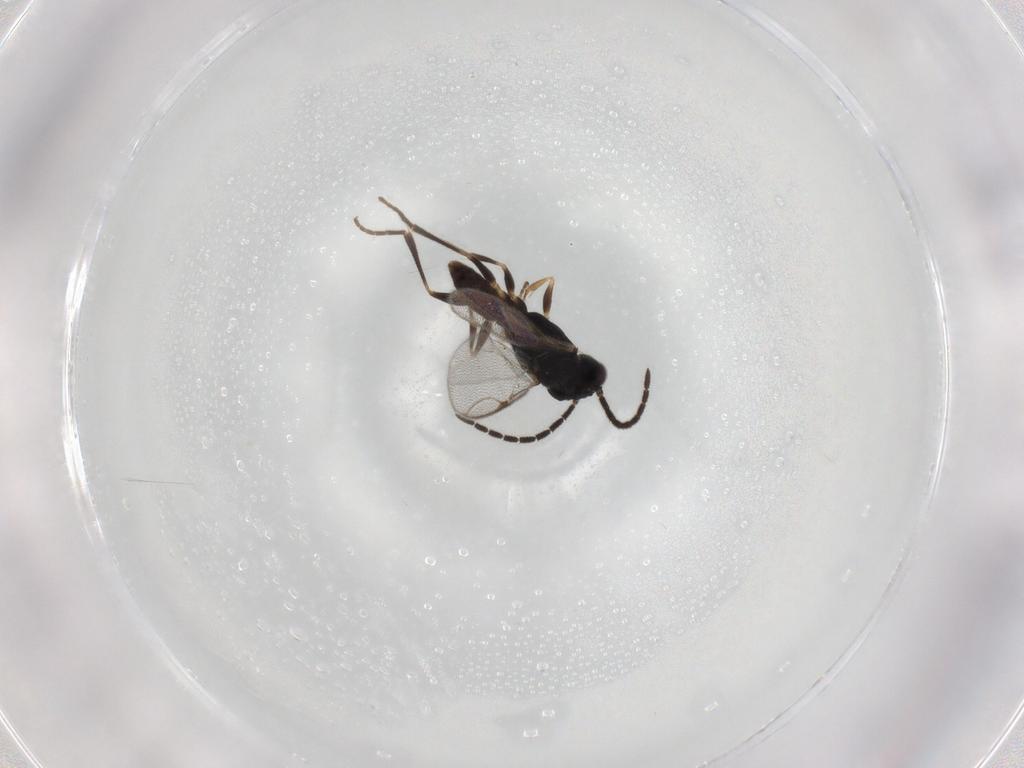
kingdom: Animalia
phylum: Arthropoda
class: Insecta
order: Hymenoptera
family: Dryinidae
